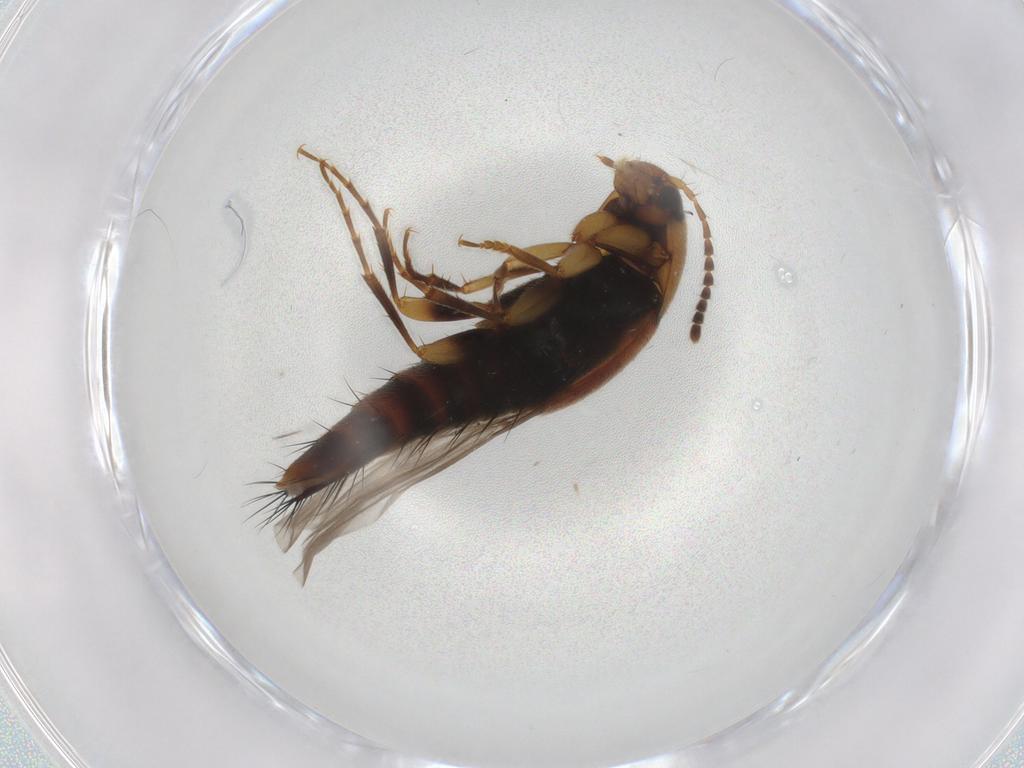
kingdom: Animalia
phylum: Arthropoda
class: Insecta
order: Coleoptera
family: Staphylinidae
